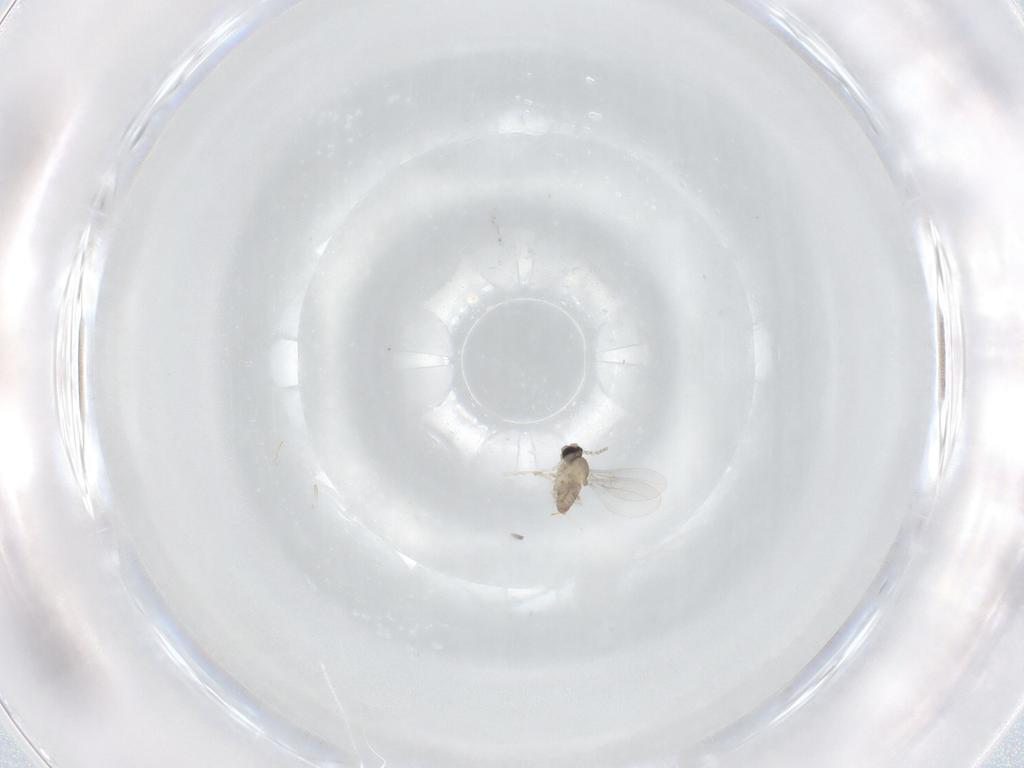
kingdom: Animalia
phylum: Arthropoda
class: Insecta
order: Diptera
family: Cecidomyiidae
